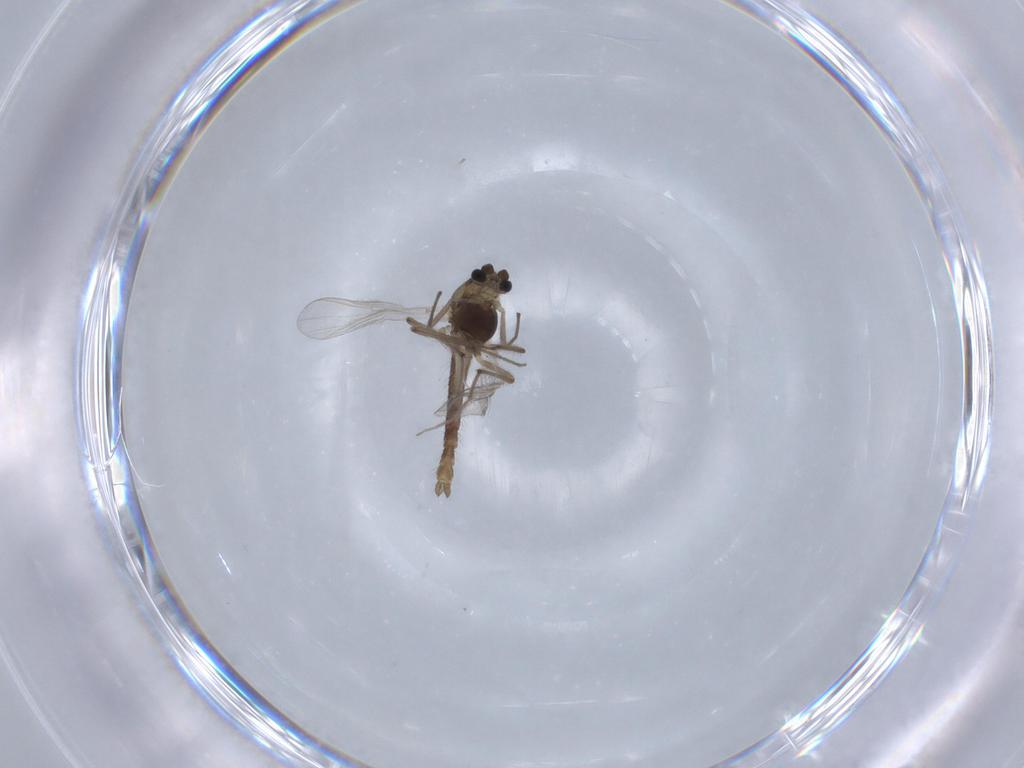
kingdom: Animalia
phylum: Arthropoda
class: Insecta
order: Diptera
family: Chironomidae
